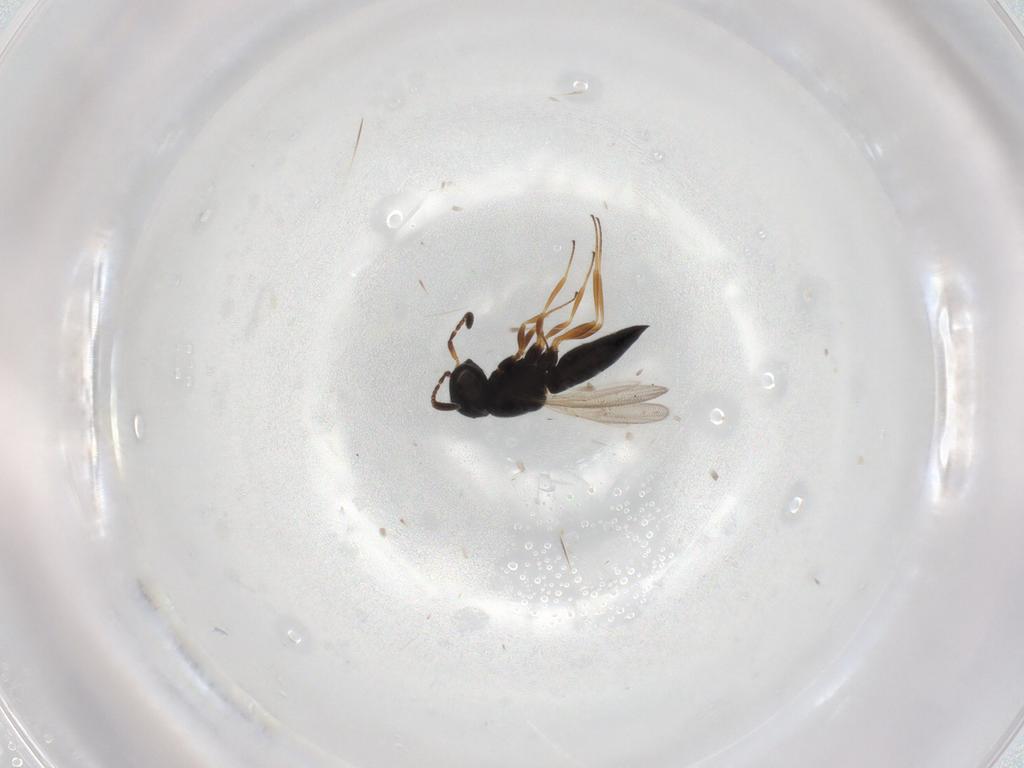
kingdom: Animalia
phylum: Arthropoda
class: Insecta
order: Hymenoptera
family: Scelionidae
